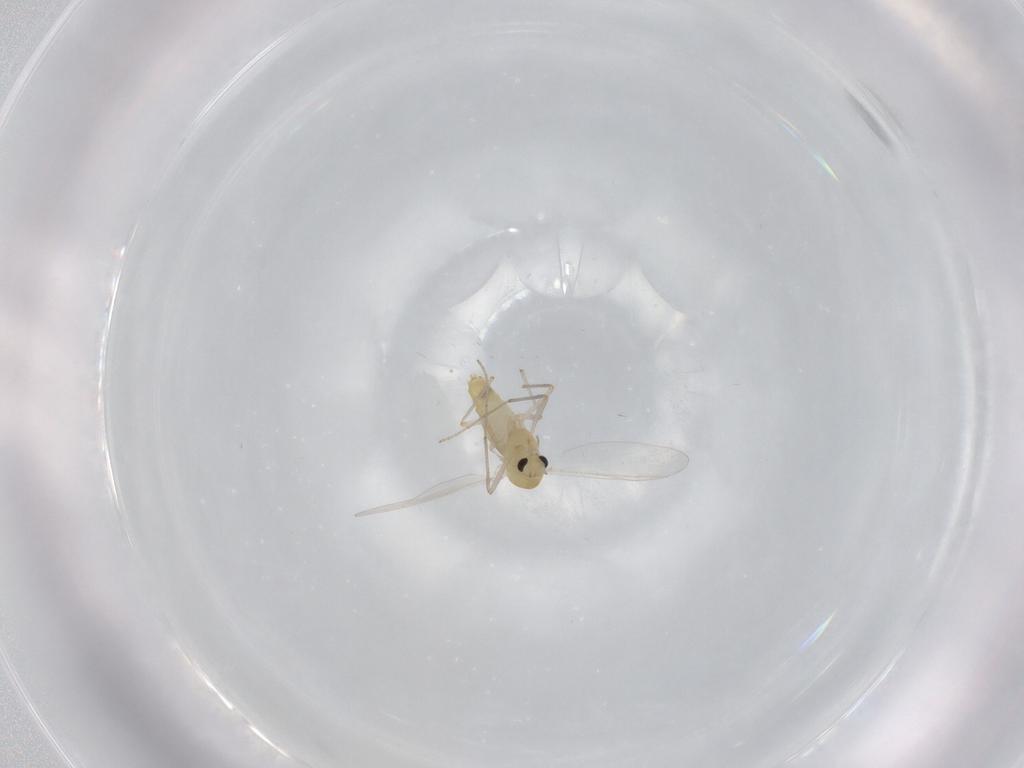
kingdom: Animalia
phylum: Arthropoda
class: Insecta
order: Diptera
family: Chironomidae
